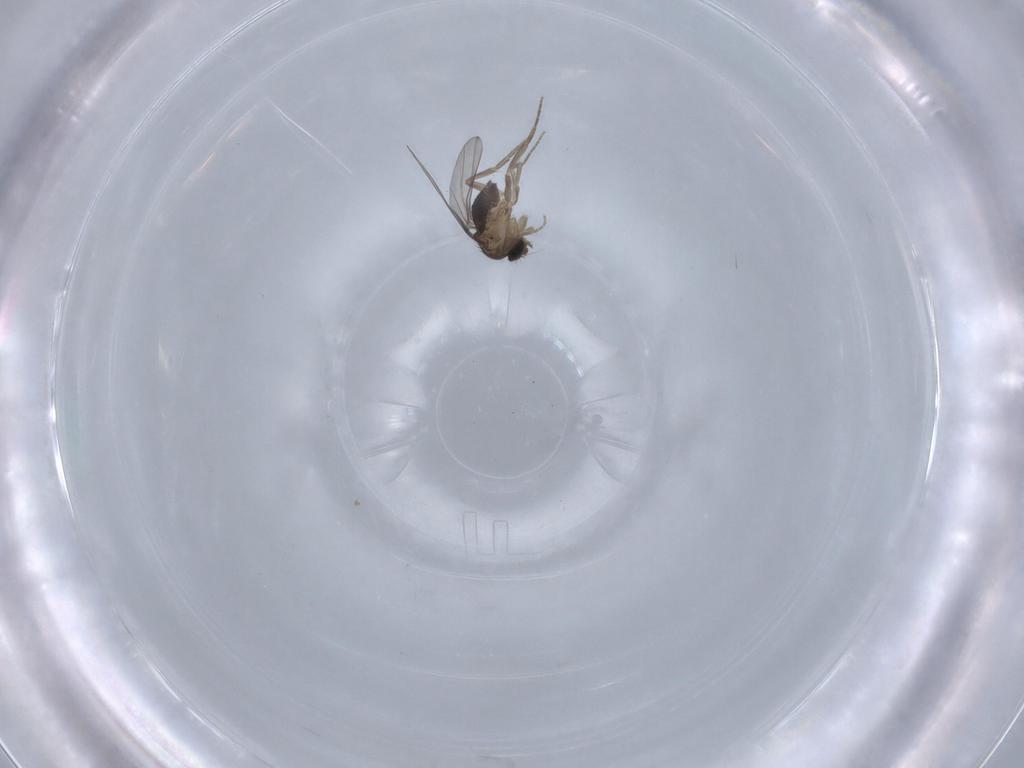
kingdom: Animalia
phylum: Arthropoda
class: Insecta
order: Diptera
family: Phoridae
